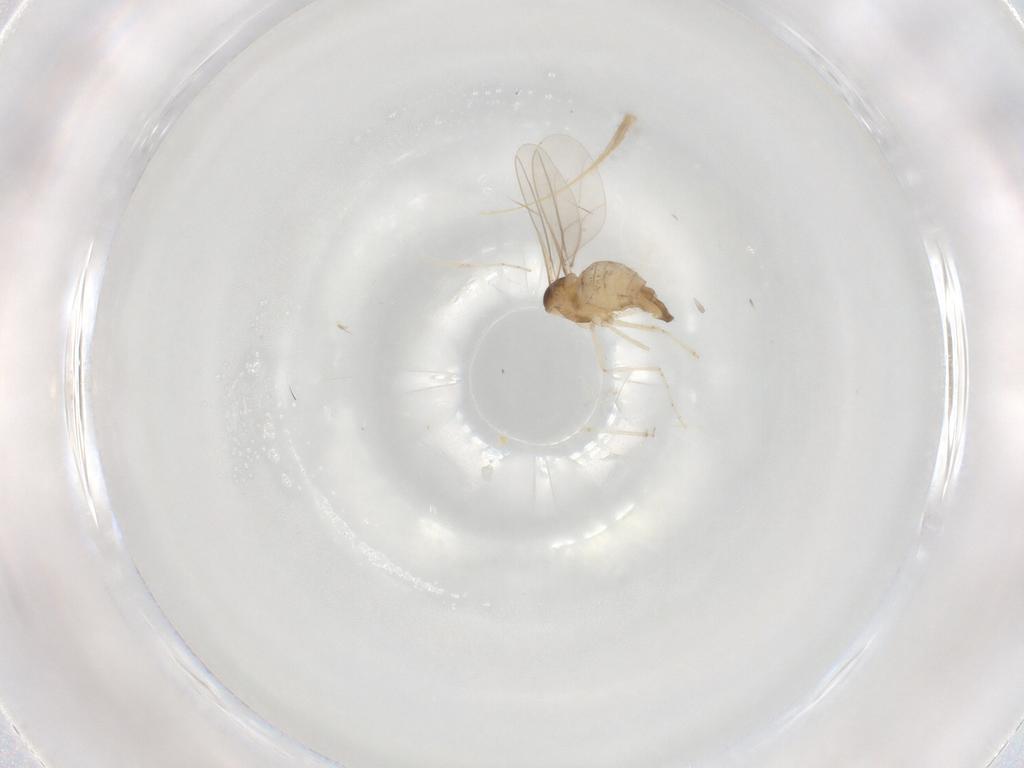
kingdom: Animalia
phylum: Arthropoda
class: Insecta
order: Diptera
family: Cecidomyiidae
